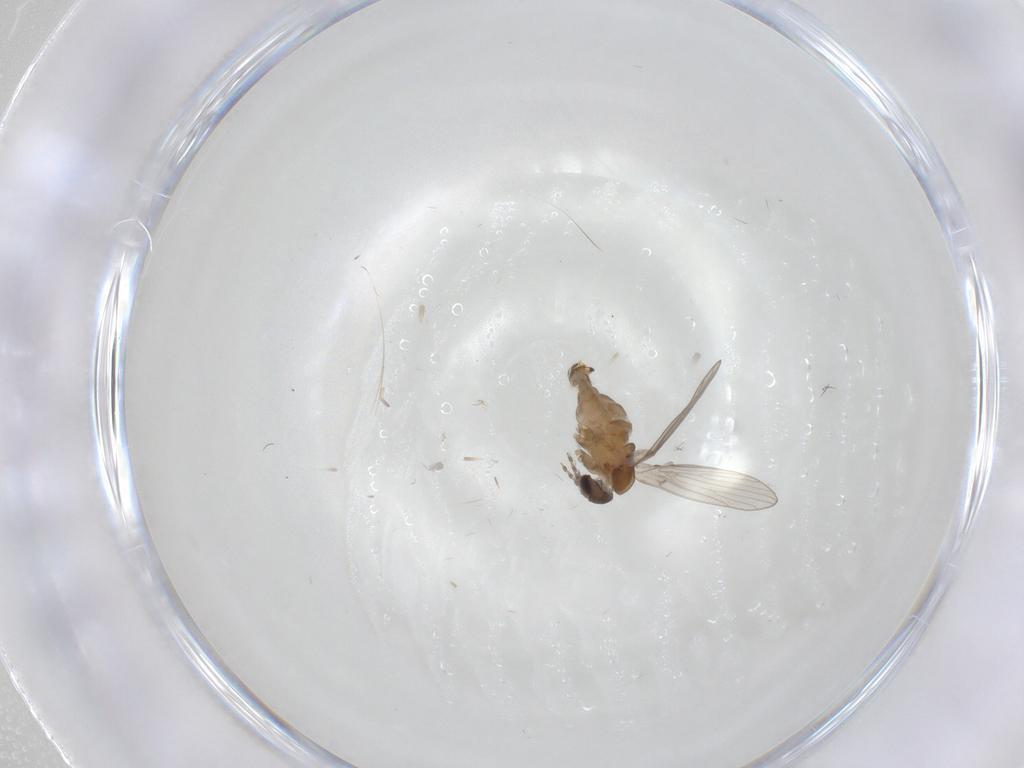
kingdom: Animalia
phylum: Arthropoda
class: Insecta
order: Diptera
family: Psychodidae
